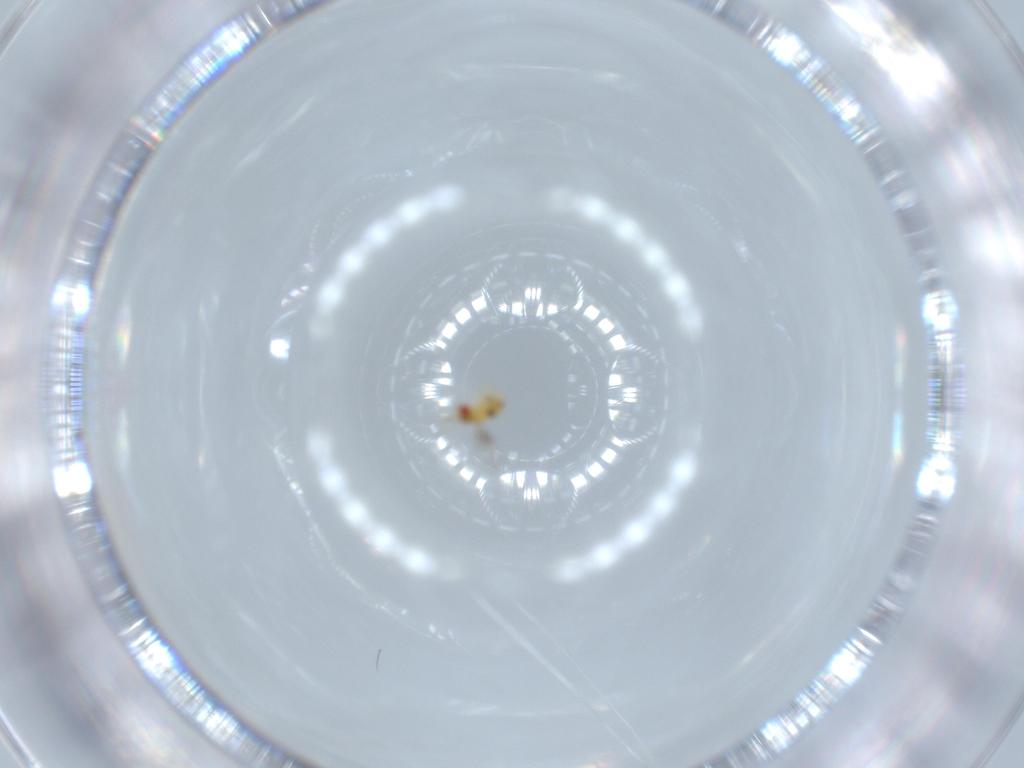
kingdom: Animalia
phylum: Arthropoda
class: Insecta
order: Hymenoptera
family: Trichogrammatidae
